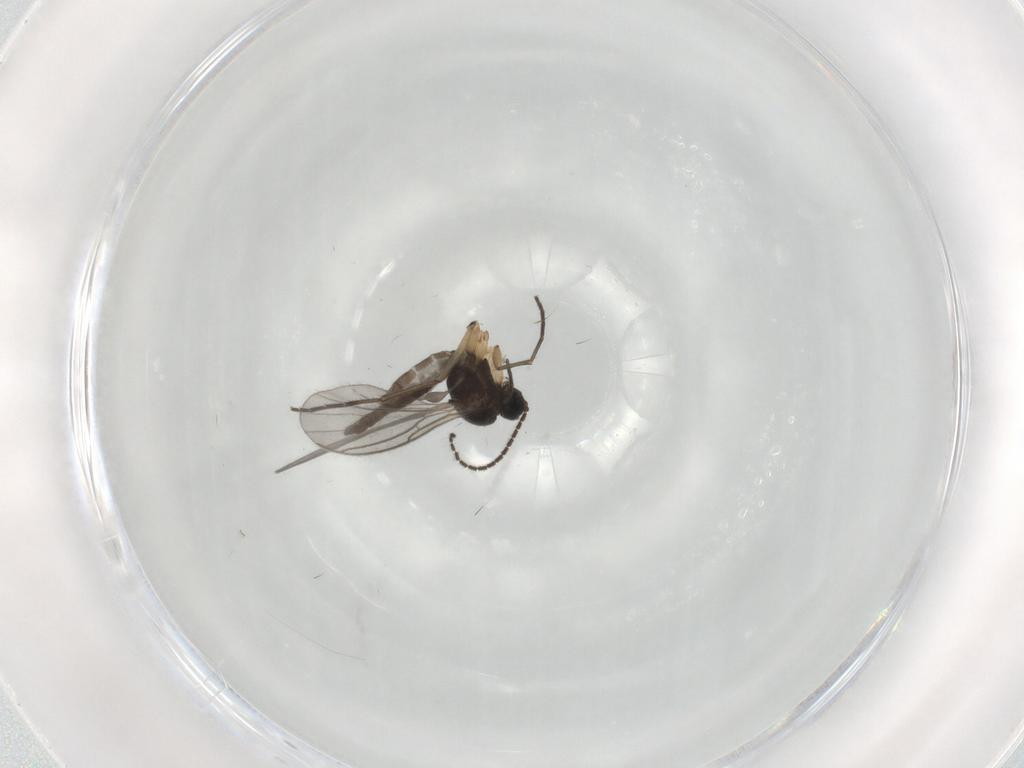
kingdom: Animalia
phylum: Arthropoda
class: Insecta
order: Diptera
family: Sciaridae
